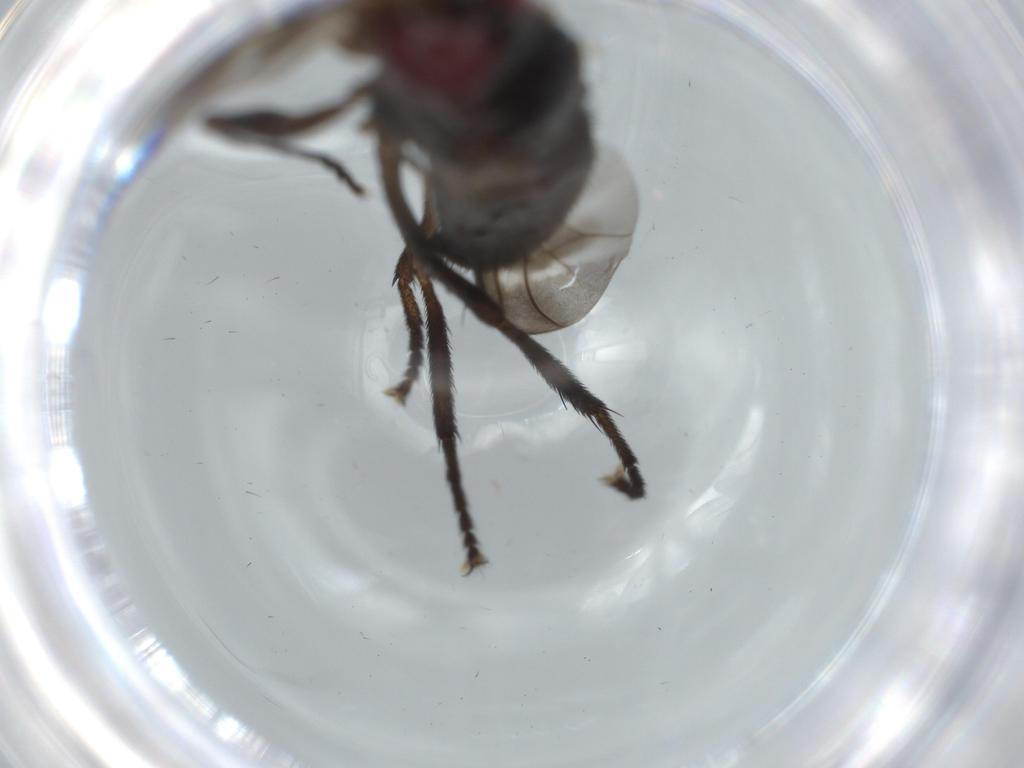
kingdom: Animalia
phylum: Arthropoda
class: Insecta
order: Diptera
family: Calliphoridae
